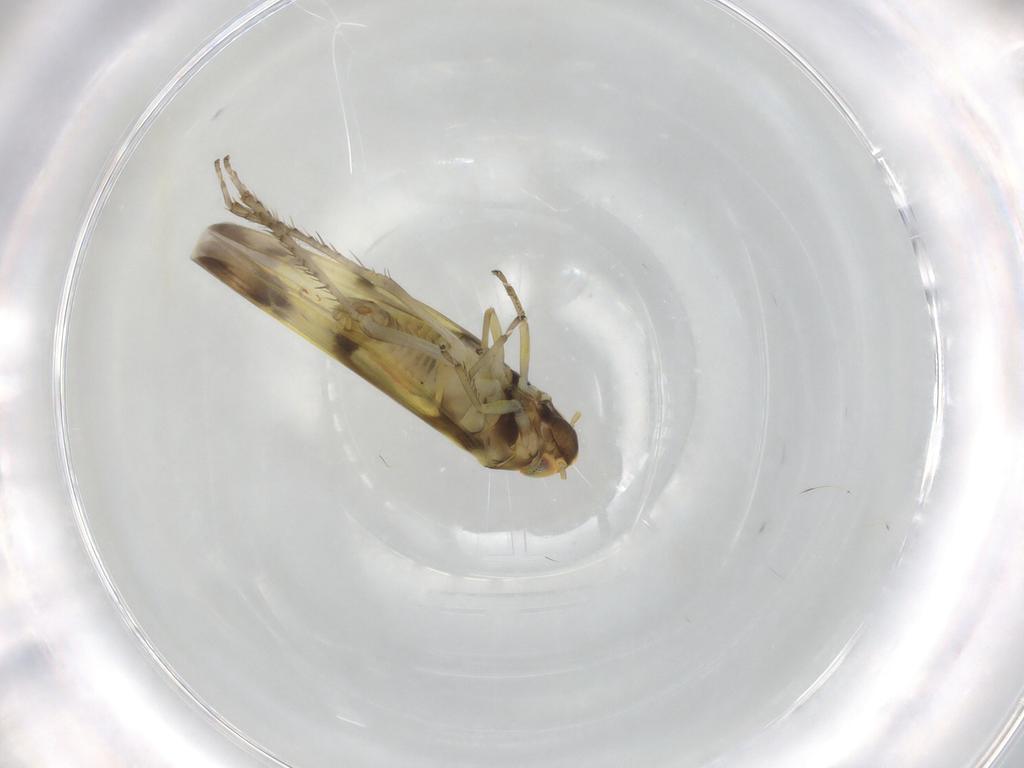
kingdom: Animalia
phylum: Arthropoda
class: Insecta
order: Hemiptera
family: Cicadellidae
